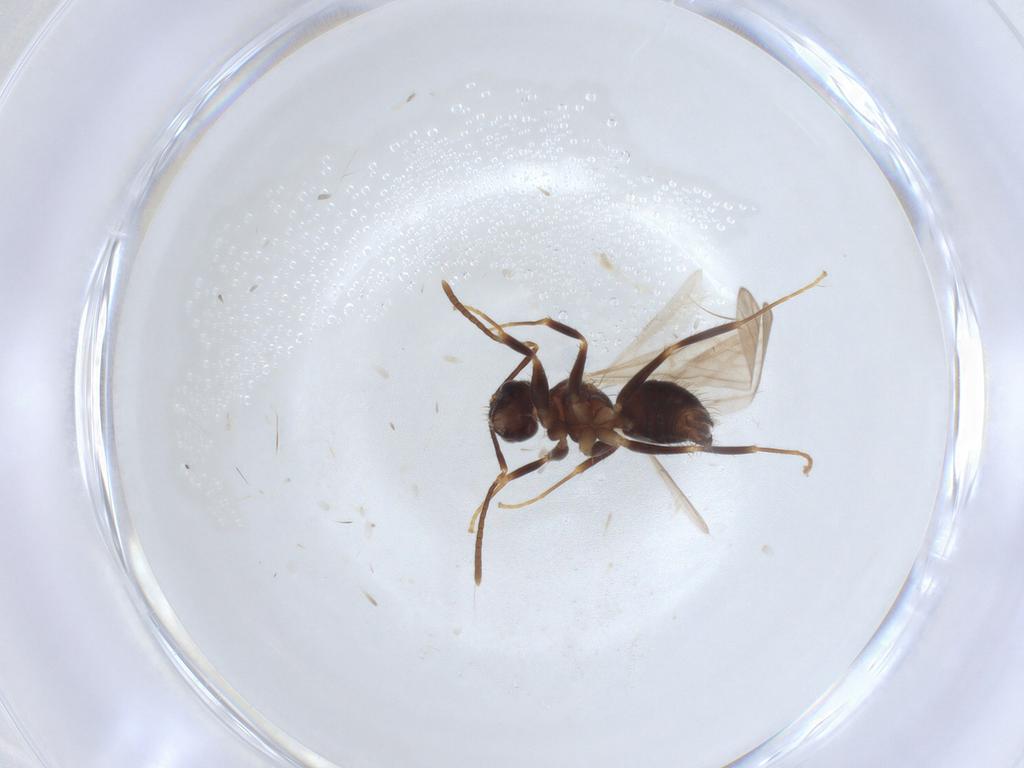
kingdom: Animalia
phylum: Arthropoda
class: Insecta
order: Hymenoptera
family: Formicidae
